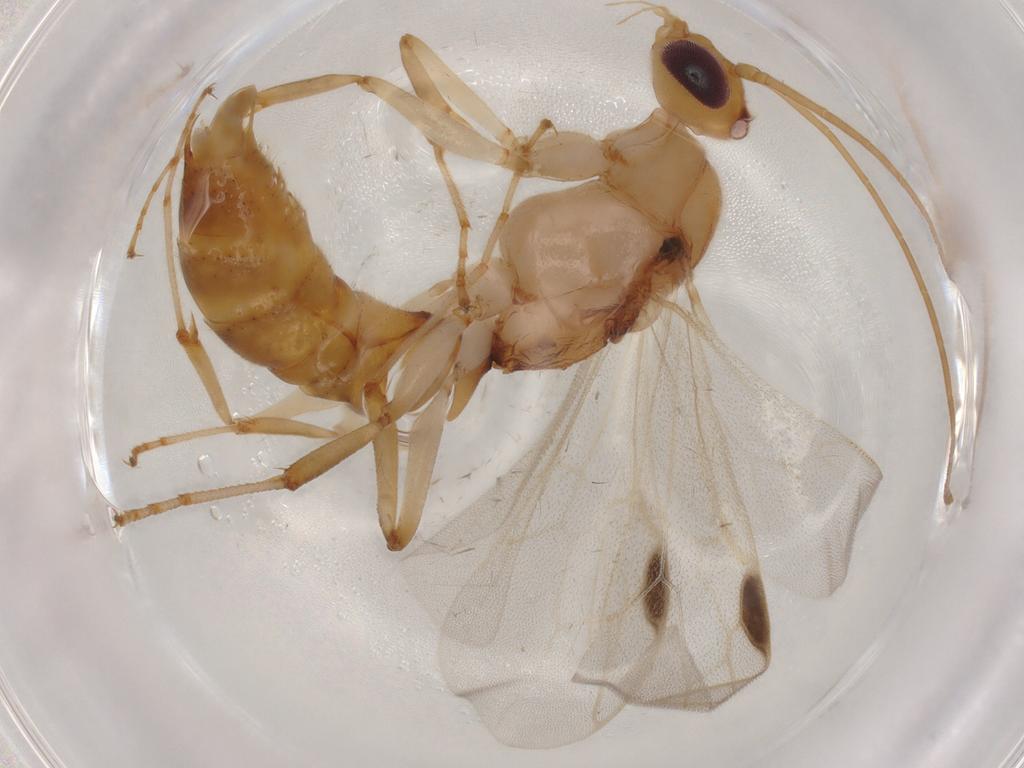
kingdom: Animalia
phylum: Arthropoda
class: Insecta
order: Hymenoptera
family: Formicidae
